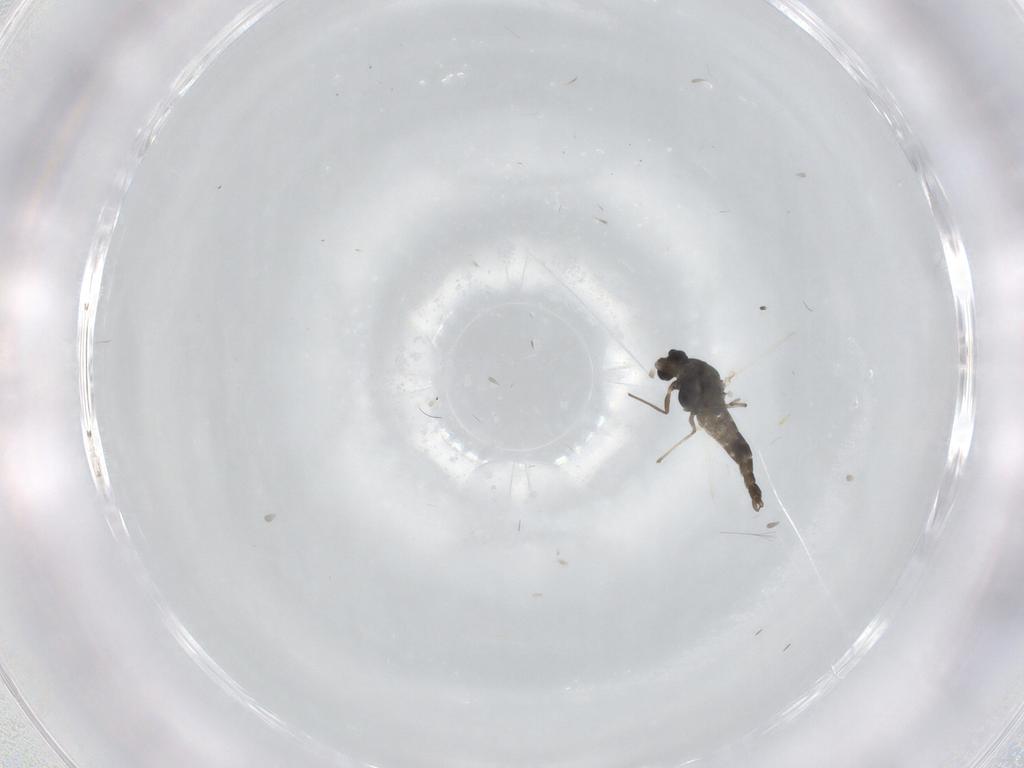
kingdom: Animalia
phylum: Arthropoda
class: Insecta
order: Diptera
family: Chironomidae
